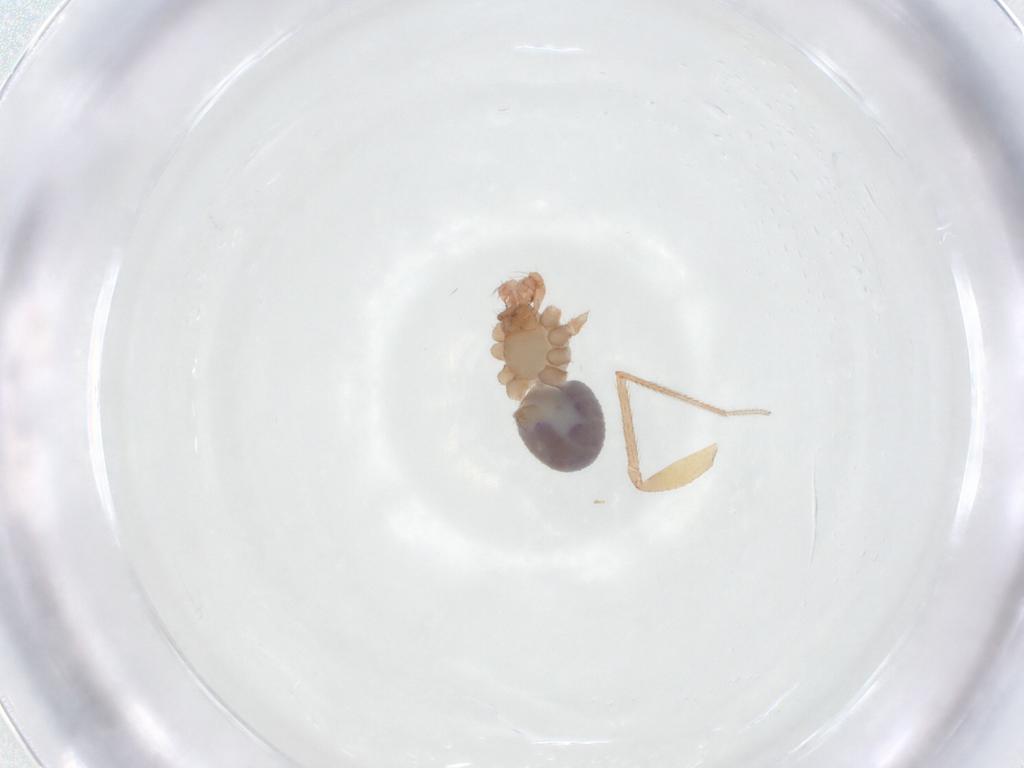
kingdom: Animalia
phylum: Arthropoda
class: Arachnida
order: Araneae
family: Pholcidae
